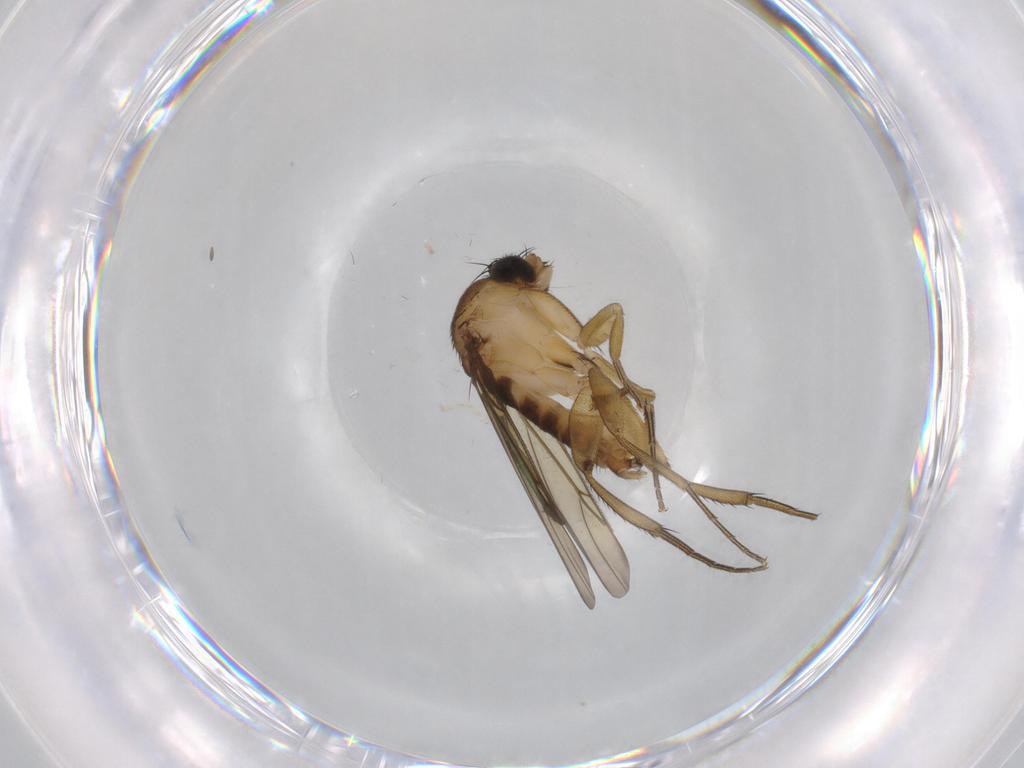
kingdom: Animalia
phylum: Arthropoda
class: Insecta
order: Diptera
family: Phoridae
